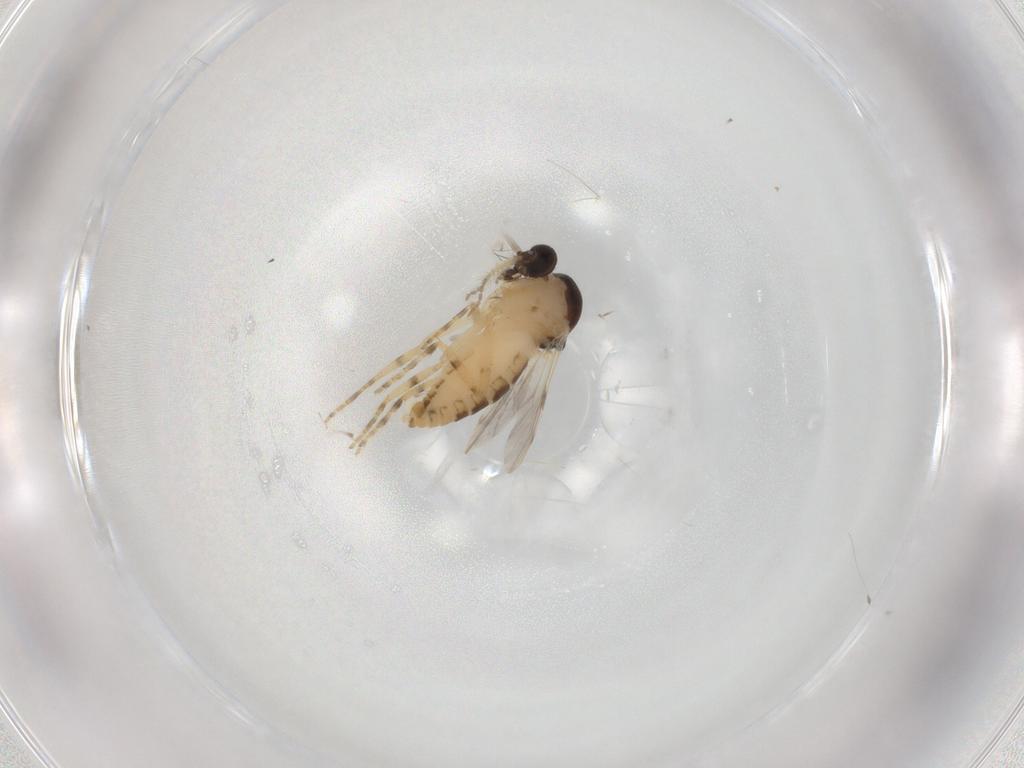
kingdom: Animalia
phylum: Arthropoda
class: Insecta
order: Diptera
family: Ceratopogonidae
